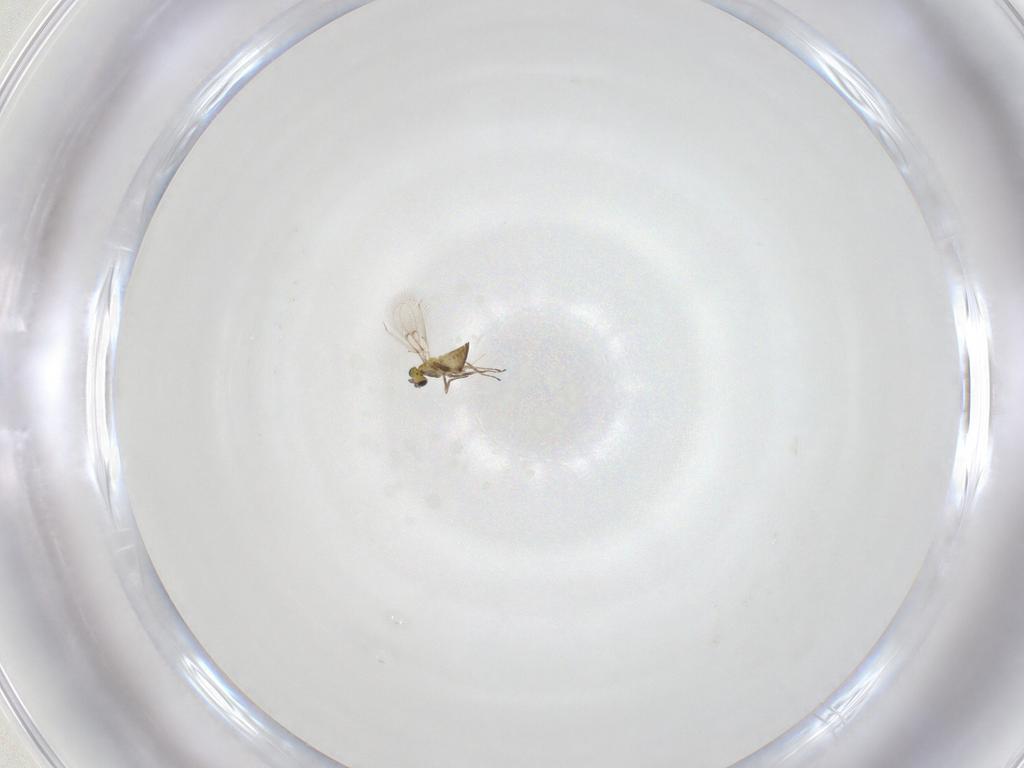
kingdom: Animalia
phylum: Arthropoda
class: Insecta
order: Hymenoptera
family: Trichogrammatidae
